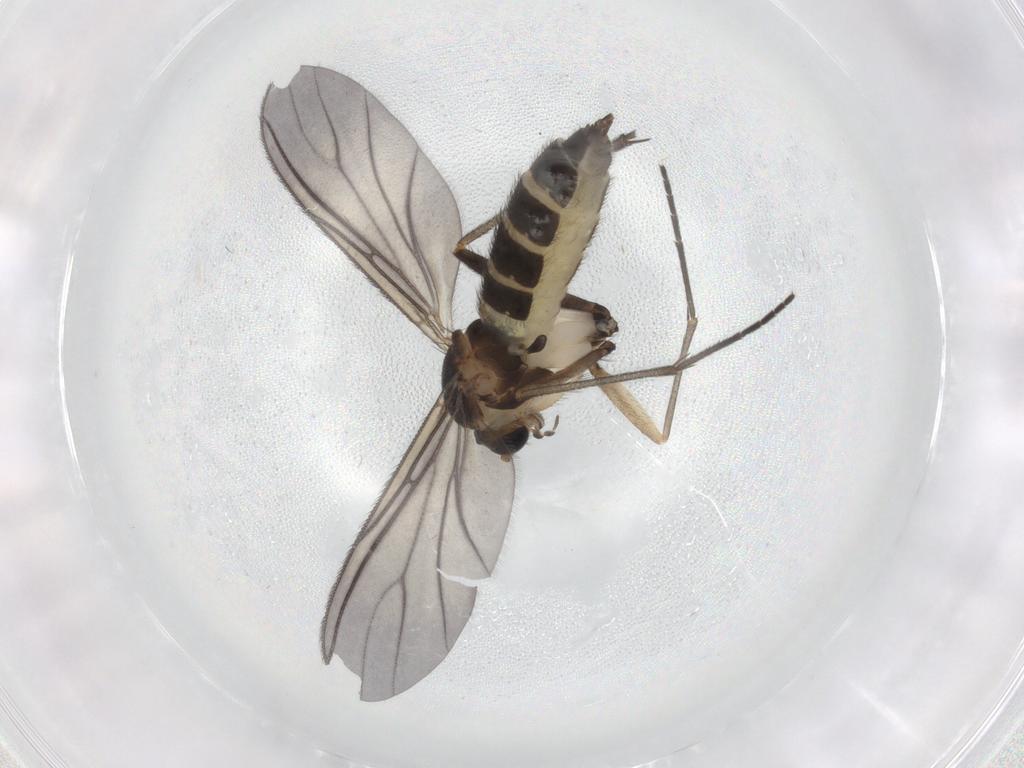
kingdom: Animalia
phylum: Arthropoda
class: Insecta
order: Diptera
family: Sciaridae
